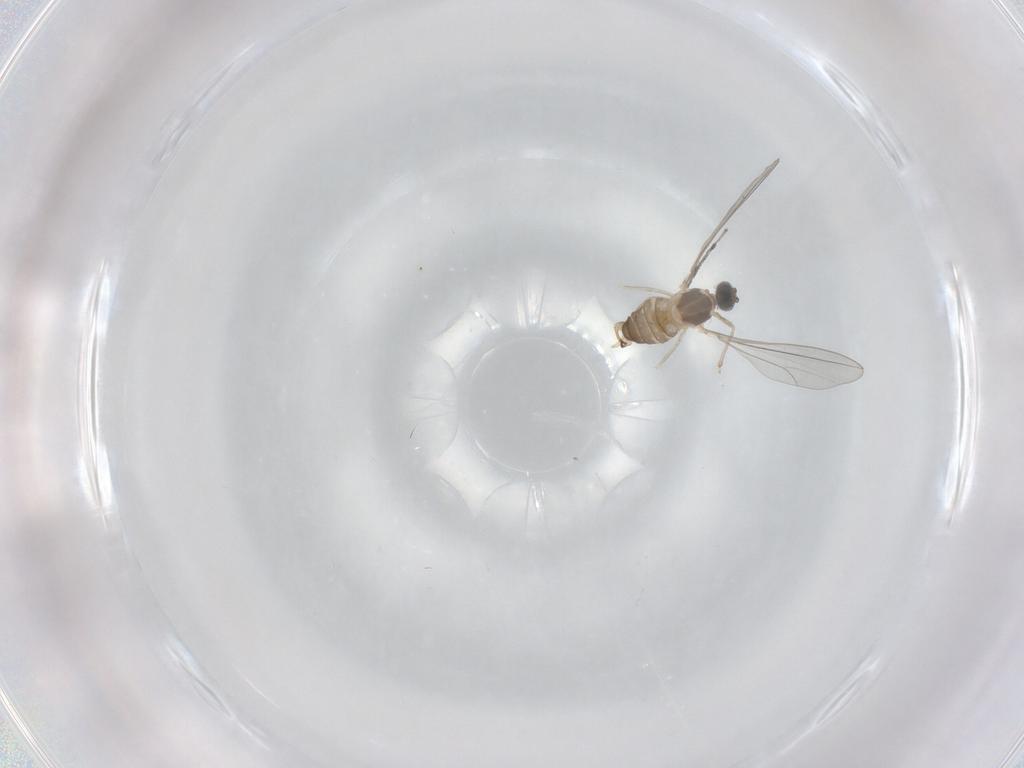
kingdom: Animalia
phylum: Arthropoda
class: Insecta
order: Diptera
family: Cecidomyiidae
